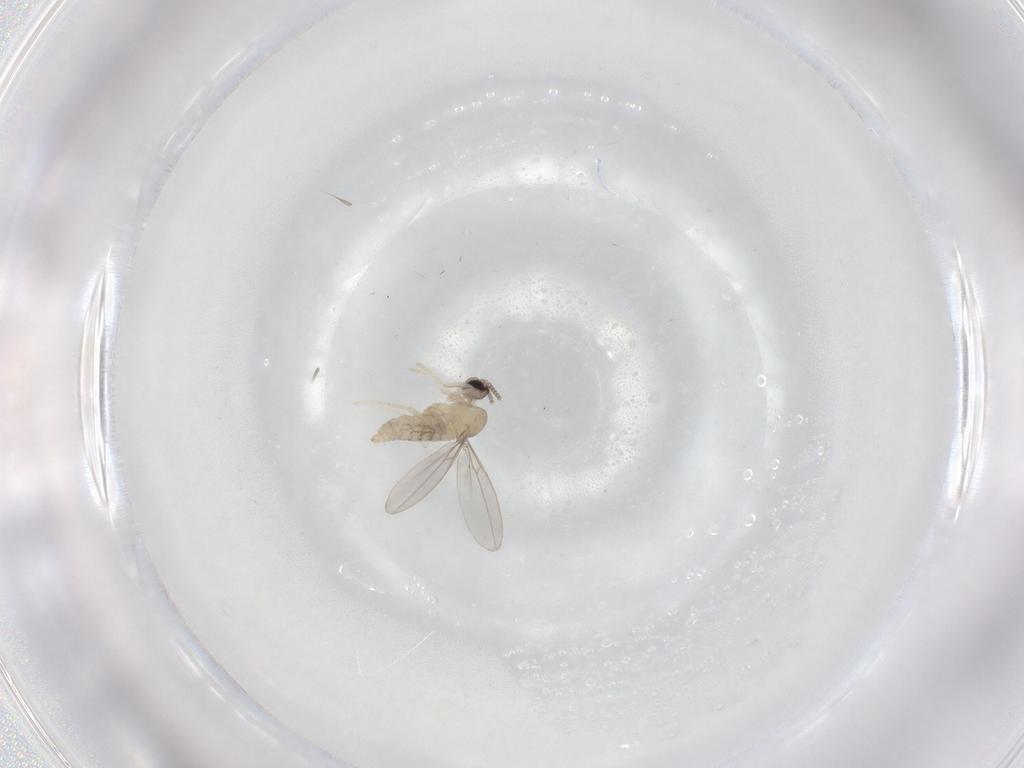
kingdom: Animalia
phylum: Arthropoda
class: Insecta
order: Diptera
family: Cecidomyiidae
